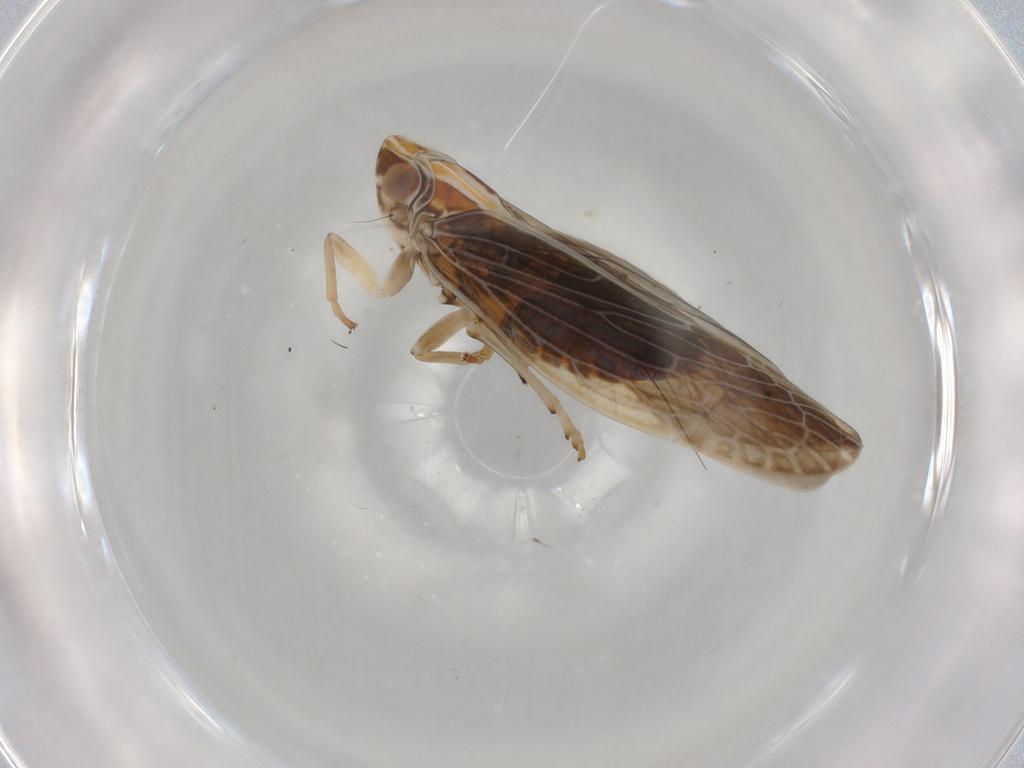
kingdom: Animalia
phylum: Arthropoda
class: Insecta
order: Hemiptera
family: Achilidae
